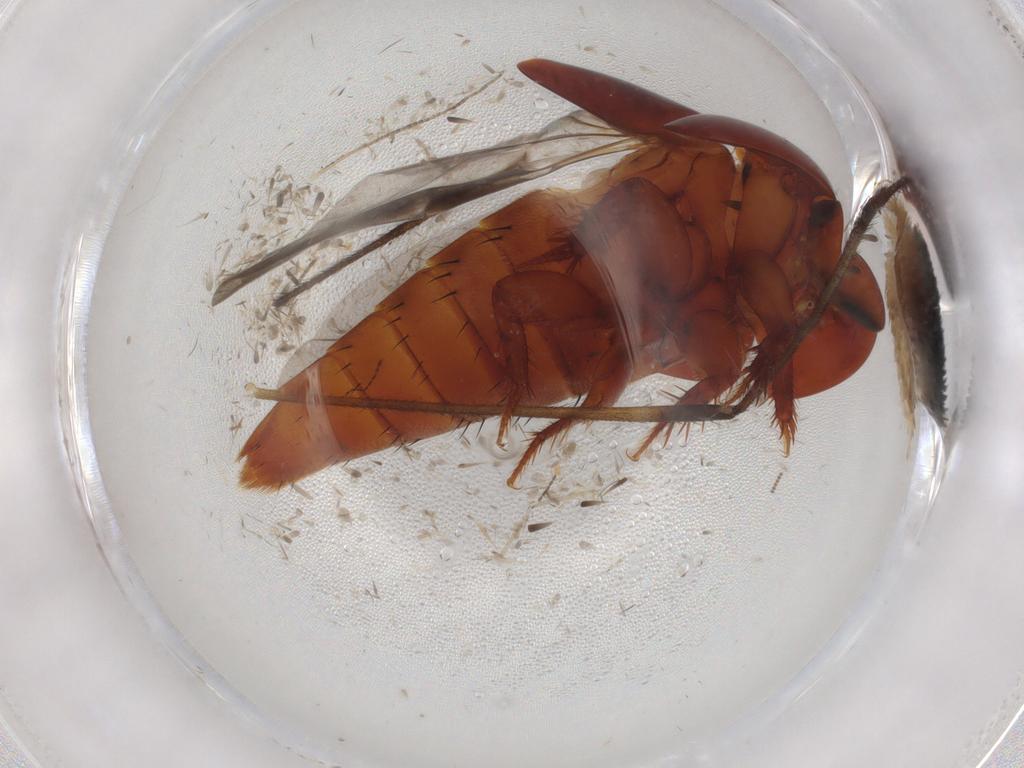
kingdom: Animalia
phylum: Arthropoda
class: Insecta
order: Coleoptera
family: Staphylinidae
